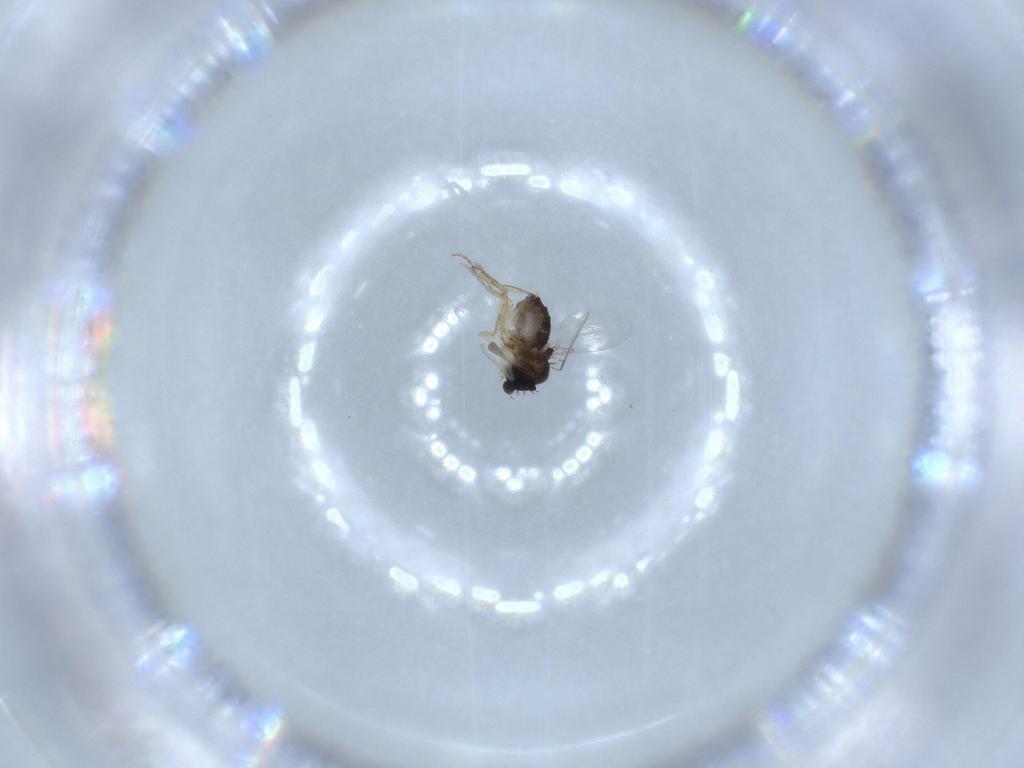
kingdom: Animalia
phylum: Arthropoda
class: Insecta
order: Diptera
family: Phoridae
